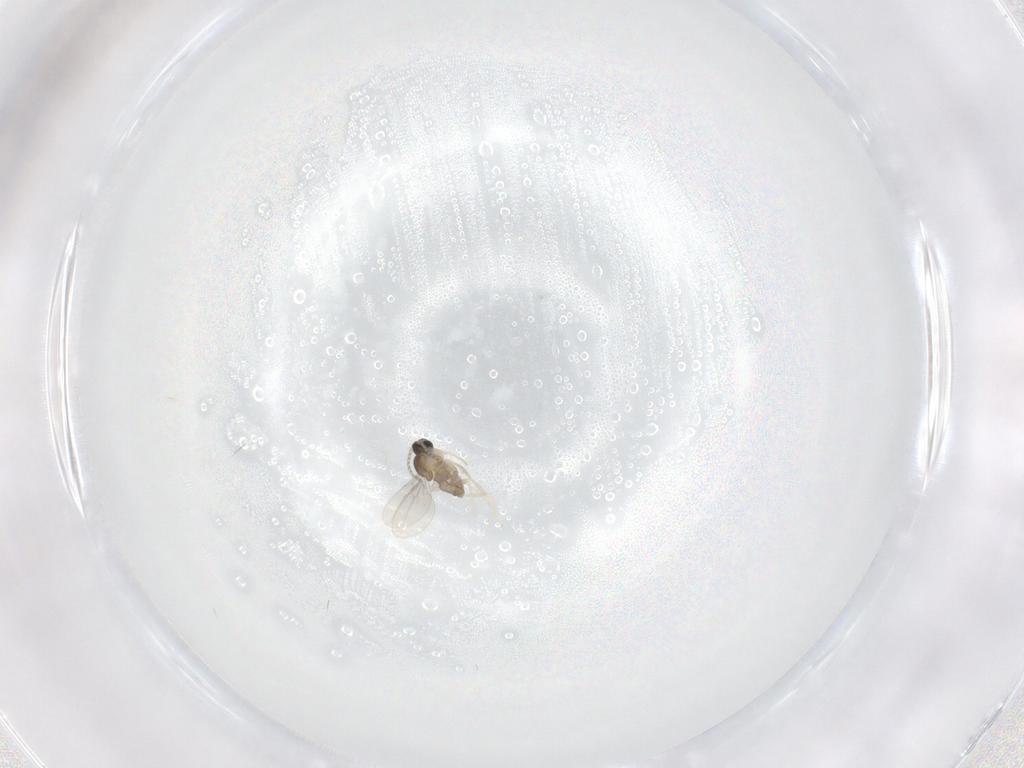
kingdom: Animalia
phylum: Arthropoda
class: Insecta
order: Diptera
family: Cecidomyiidae
